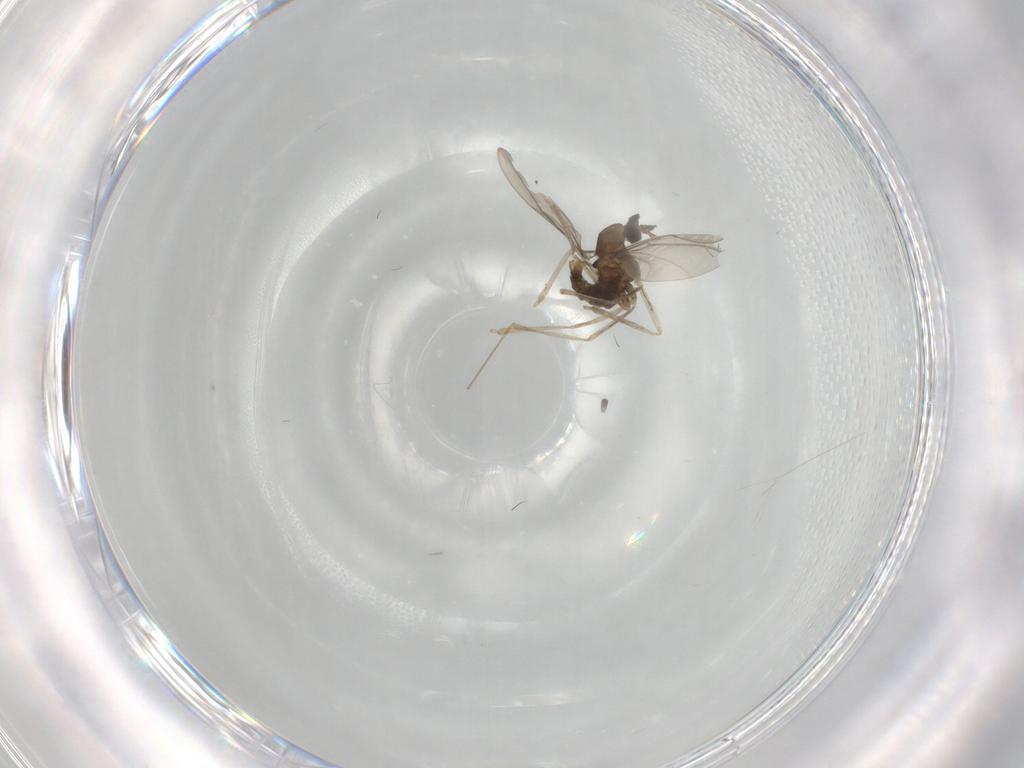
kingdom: Animalia
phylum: Arthropoda
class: Insecta
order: Diptera
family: Cecidomyiidae
